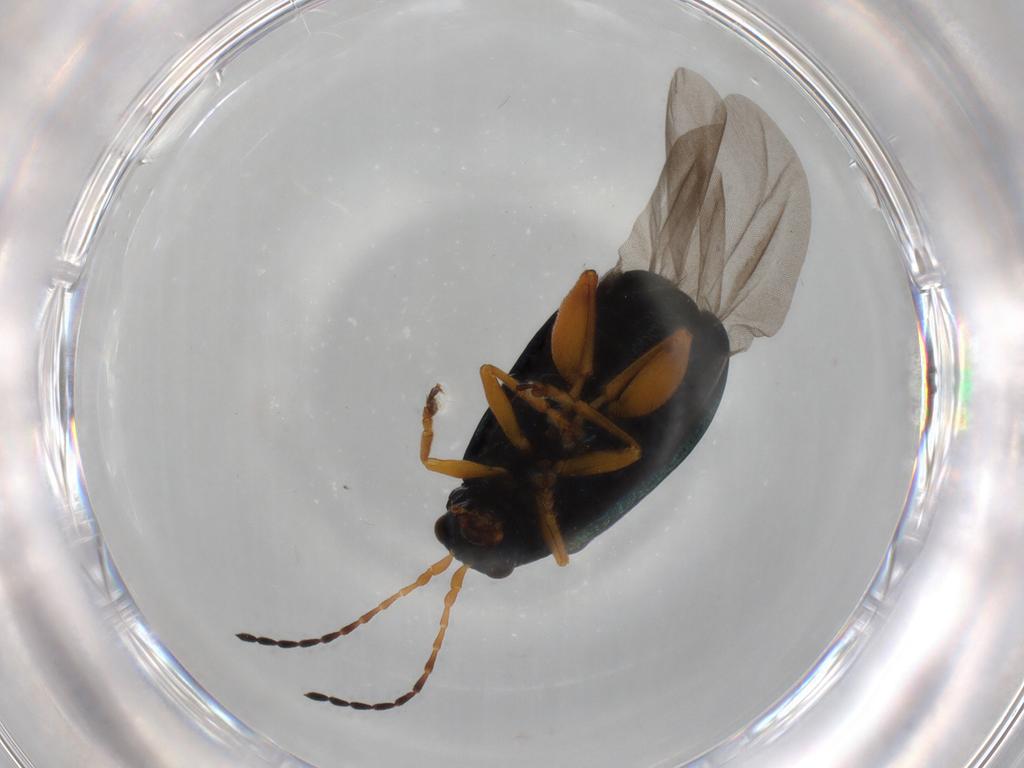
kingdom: Animalia
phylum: Arthropoda
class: Insecta
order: Coleoptera
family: Chrysomelidae
